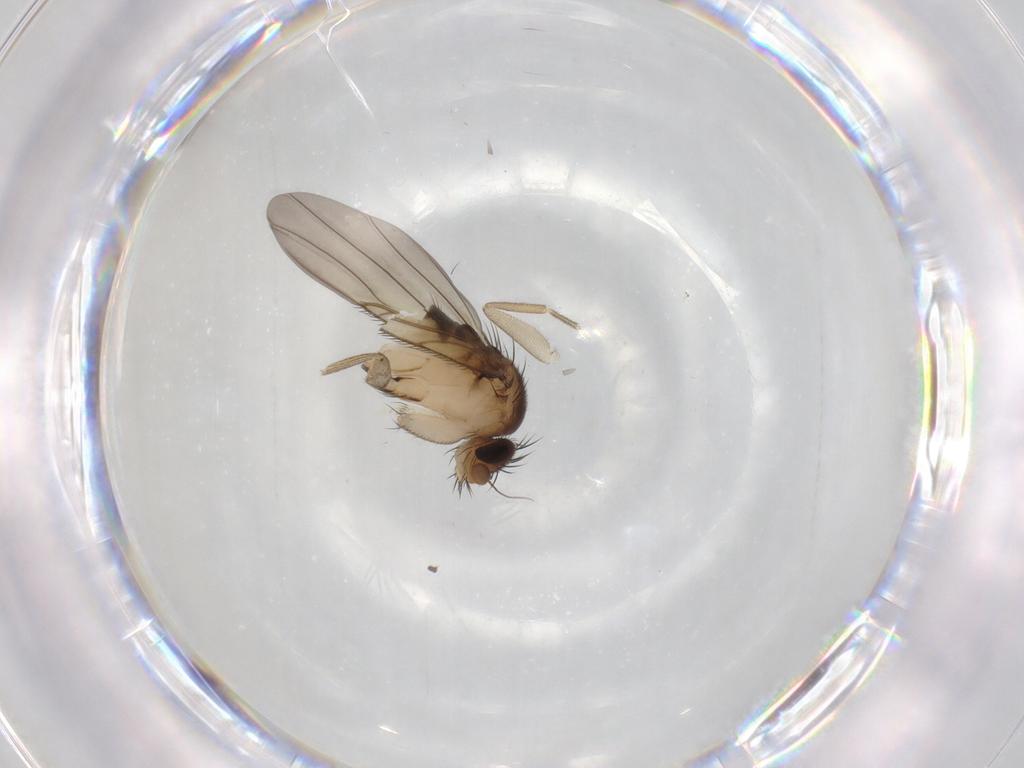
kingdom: Animalia
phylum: Arthropoda
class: Insecta
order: Diptera
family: Phoridae
